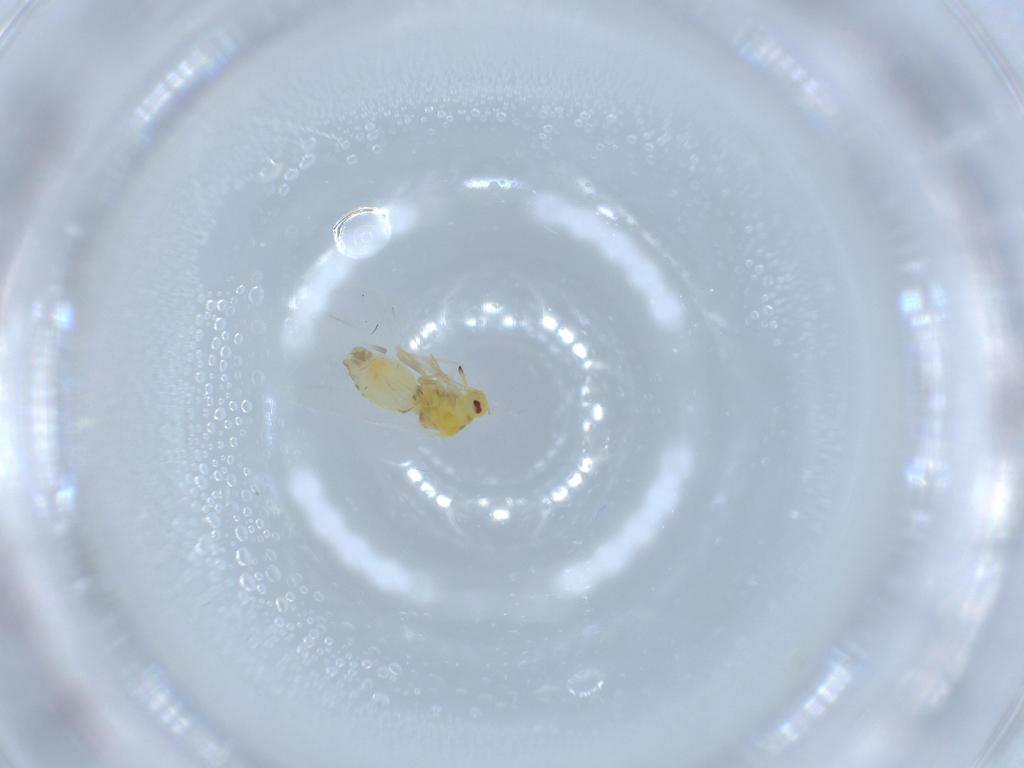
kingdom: Animalia
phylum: Arthropoda
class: Insecta
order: Hemiptera
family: Aleyrodidae
